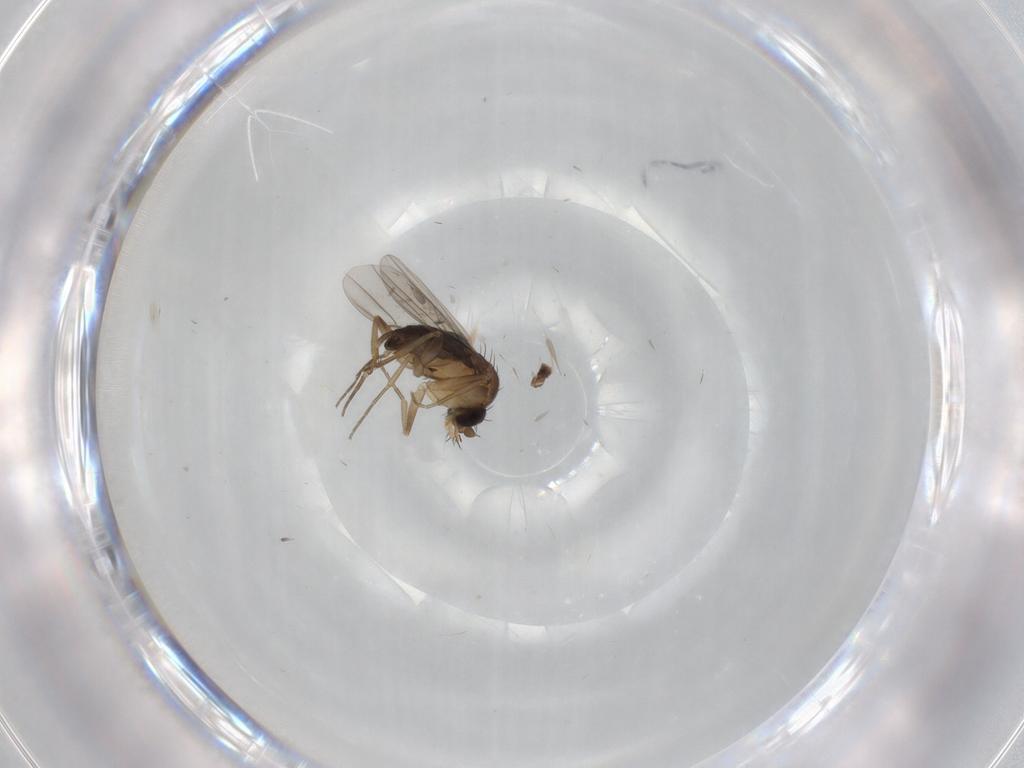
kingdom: Animalia
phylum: Arthropoda
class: Insecta
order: Diptera
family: Phoridae
